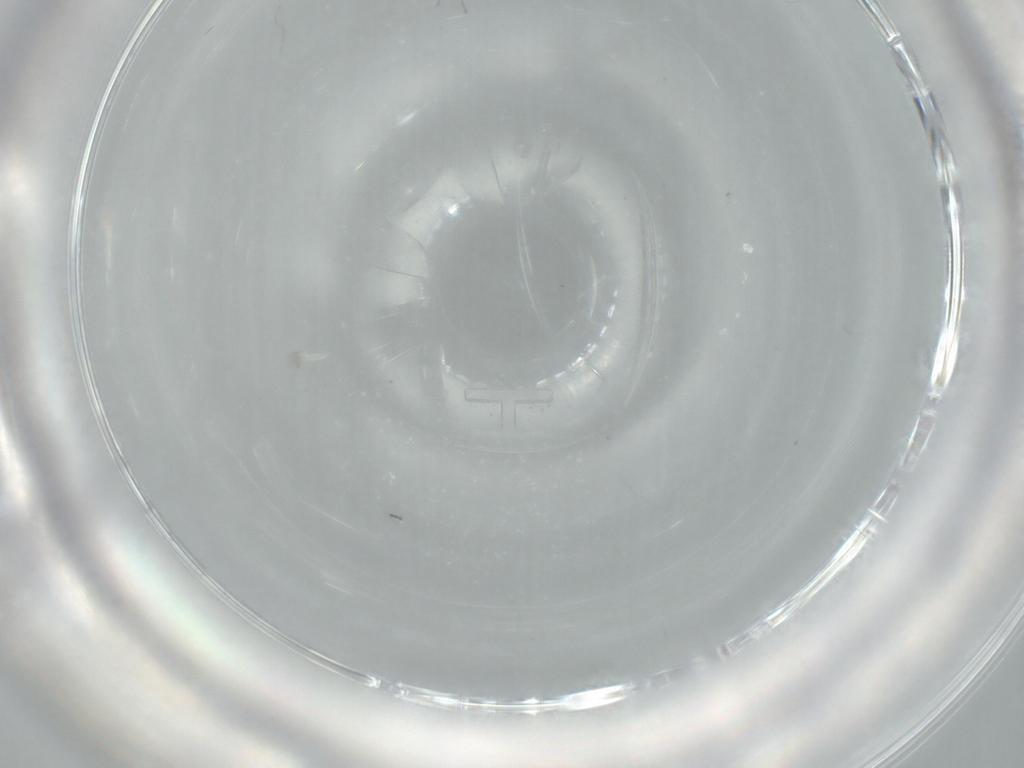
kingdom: Animalia
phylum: Arthropoda
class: Insecta
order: Diptera
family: Cecidomyiidae
